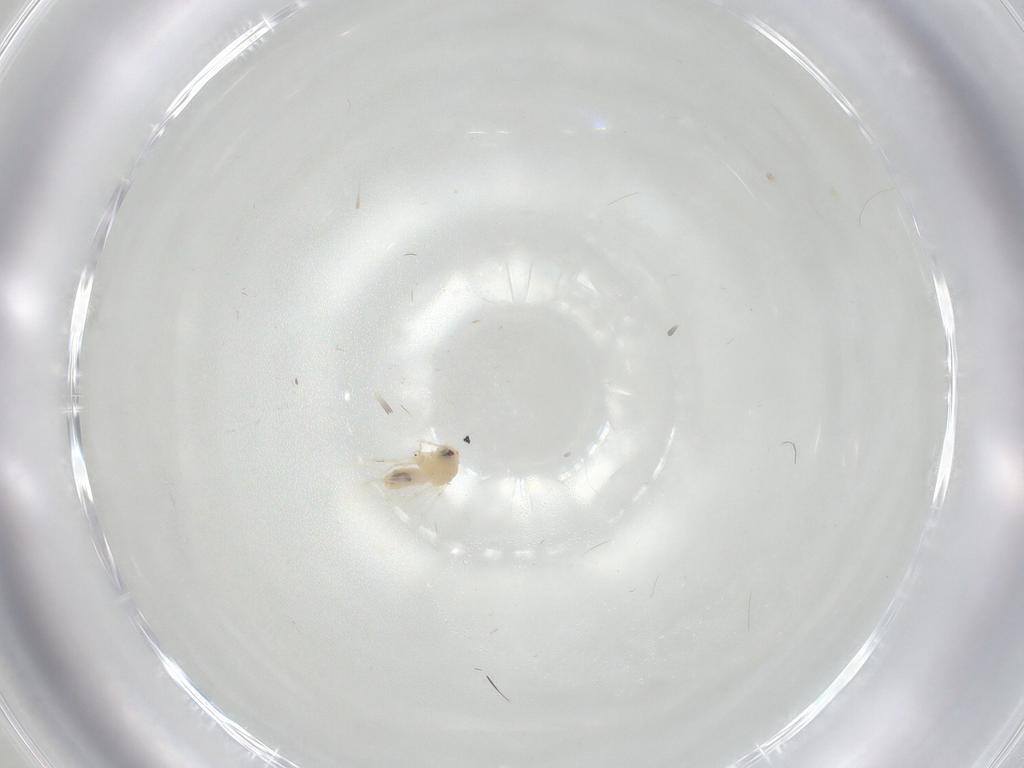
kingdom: Animalia
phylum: Arthropoda
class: Insecta
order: Hemiptera
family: Aleyrodidae
